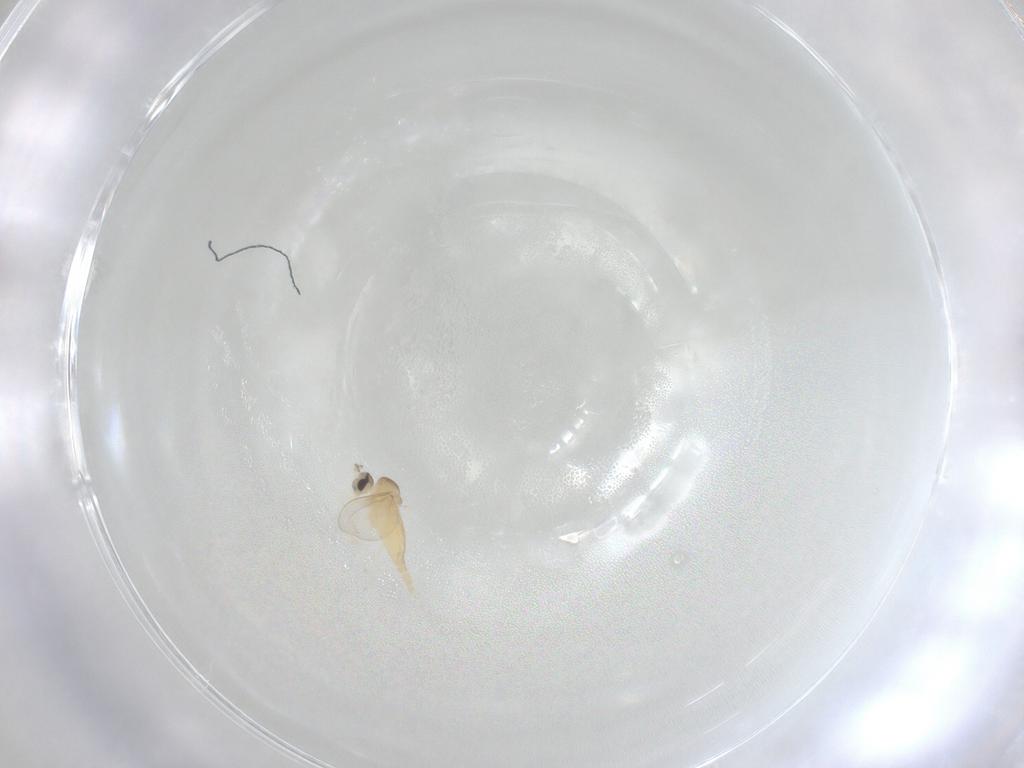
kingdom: Animalia
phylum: Arthropoda
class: Insecta
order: Diptera
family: Cecidomyiidae
